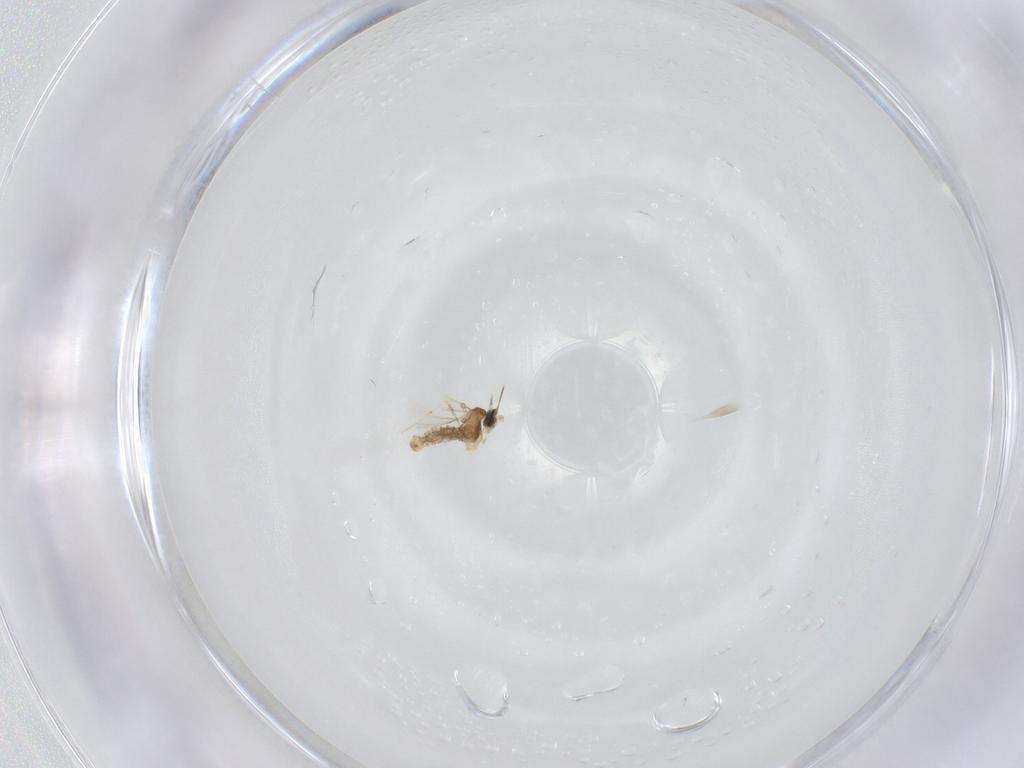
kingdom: Animalia
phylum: Arthropoda
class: Insecta
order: Diptera
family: Cecidomyiidae
